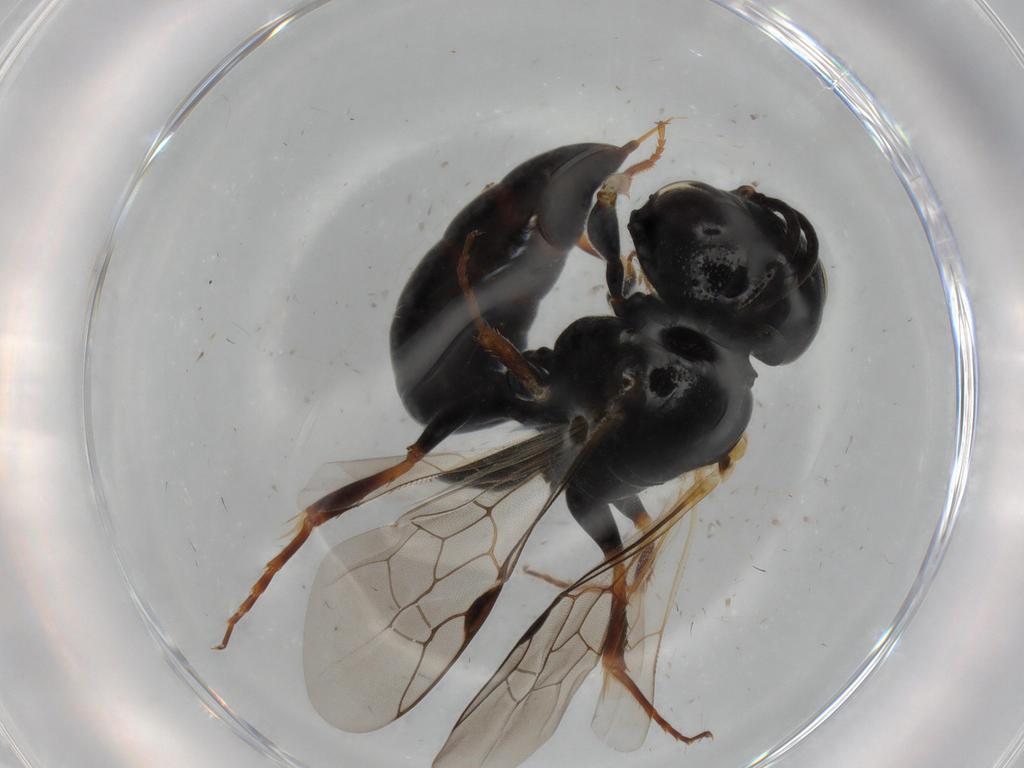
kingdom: Animalia
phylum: Arthropoda
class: Insecta
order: Hymenoptera
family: Crabronidae
